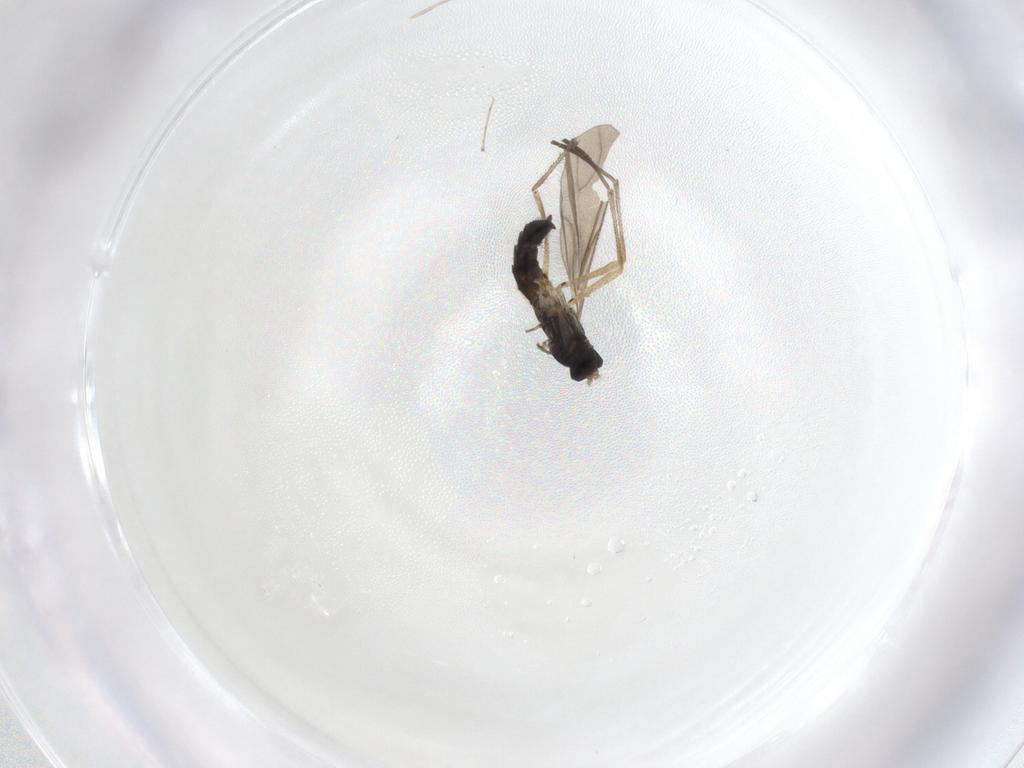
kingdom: Animalia
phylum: Arthropoda
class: Insecta
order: Diptera
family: Sciaridae
